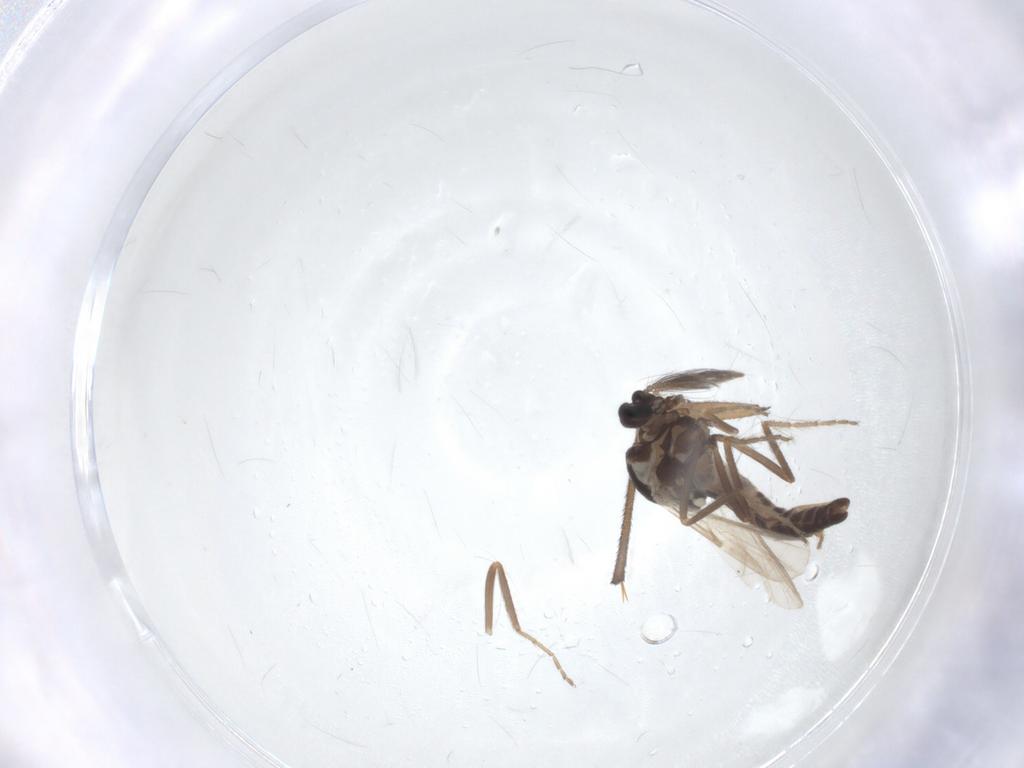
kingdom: Animalia
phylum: Arthropoda
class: Insecta
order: Diptera
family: Ceratopogonidae
